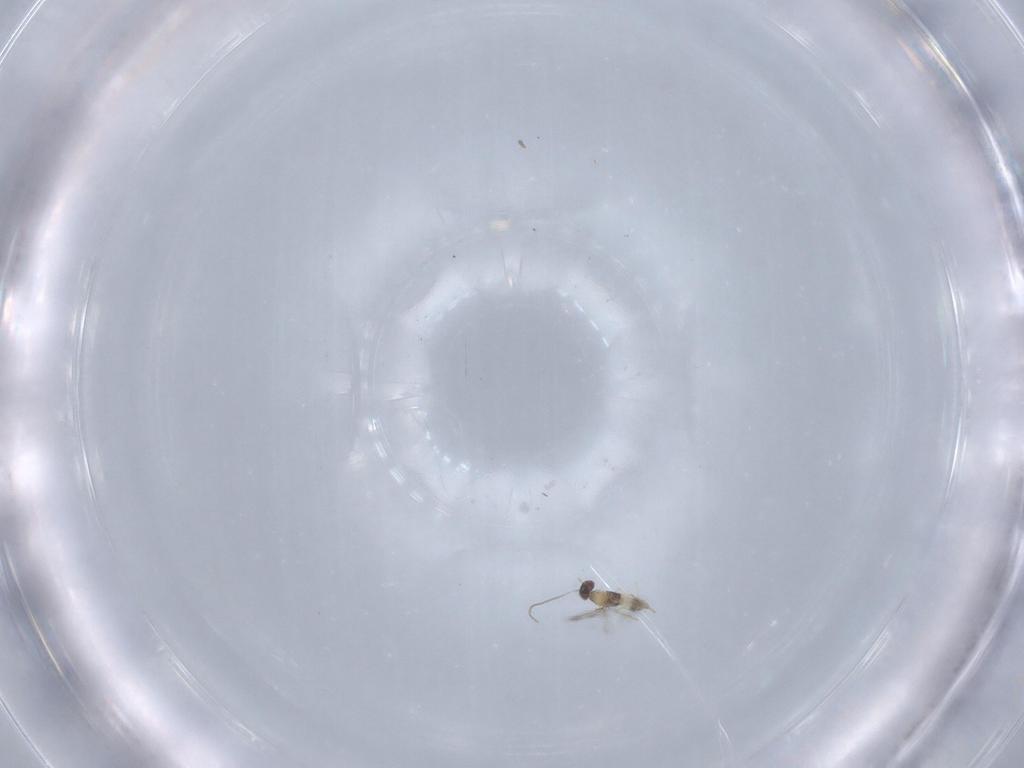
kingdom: Animalia
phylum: Arthropoda
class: Insecta
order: Hymenoptera
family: Mymaridae
